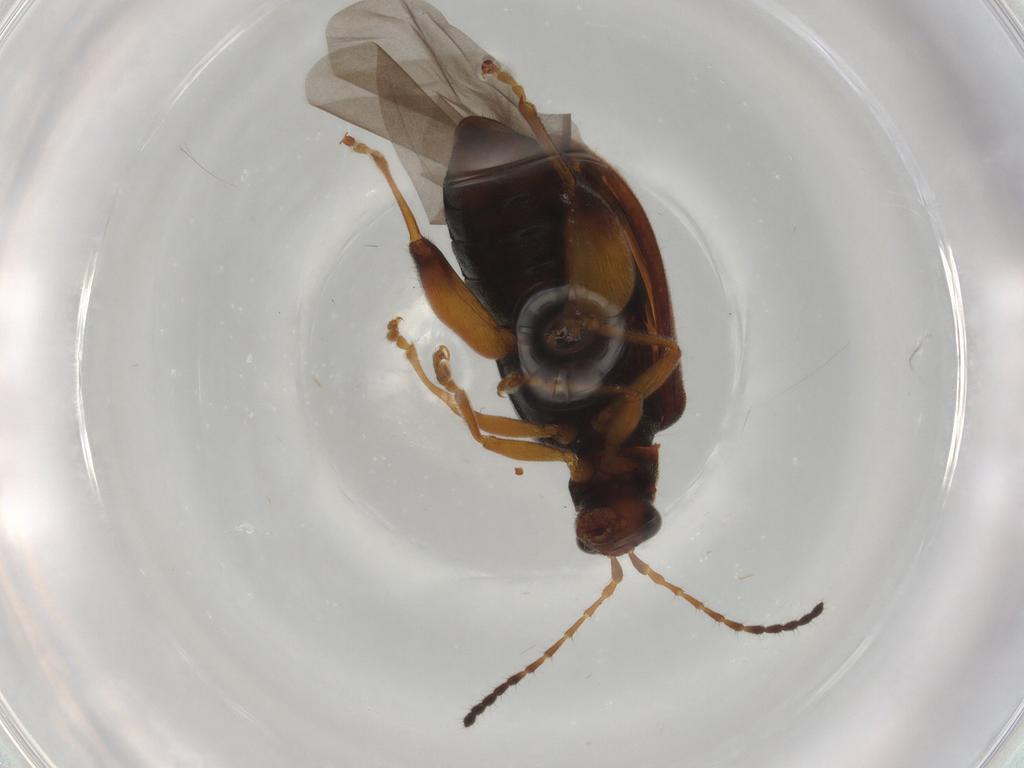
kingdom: Animalia
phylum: Arthropoda
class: Insecta
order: Coleoptera
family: Chrysomelidae
